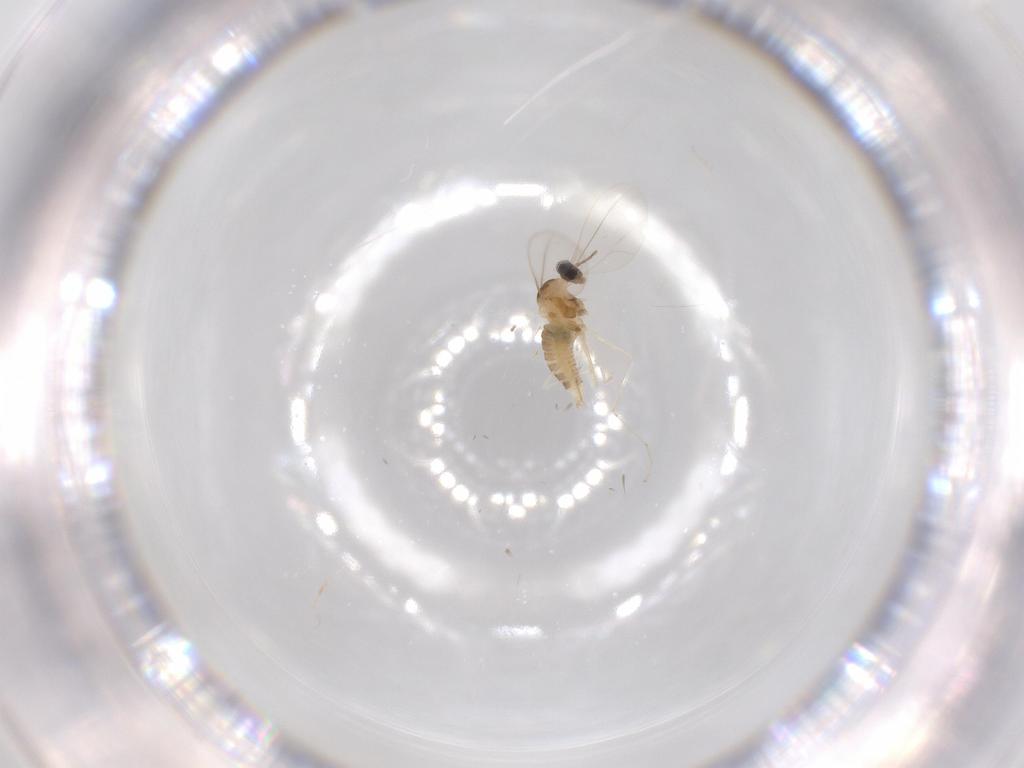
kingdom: Animalia
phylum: Arthropoda
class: Insecta
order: Diptera
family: Cecidomyiidae
